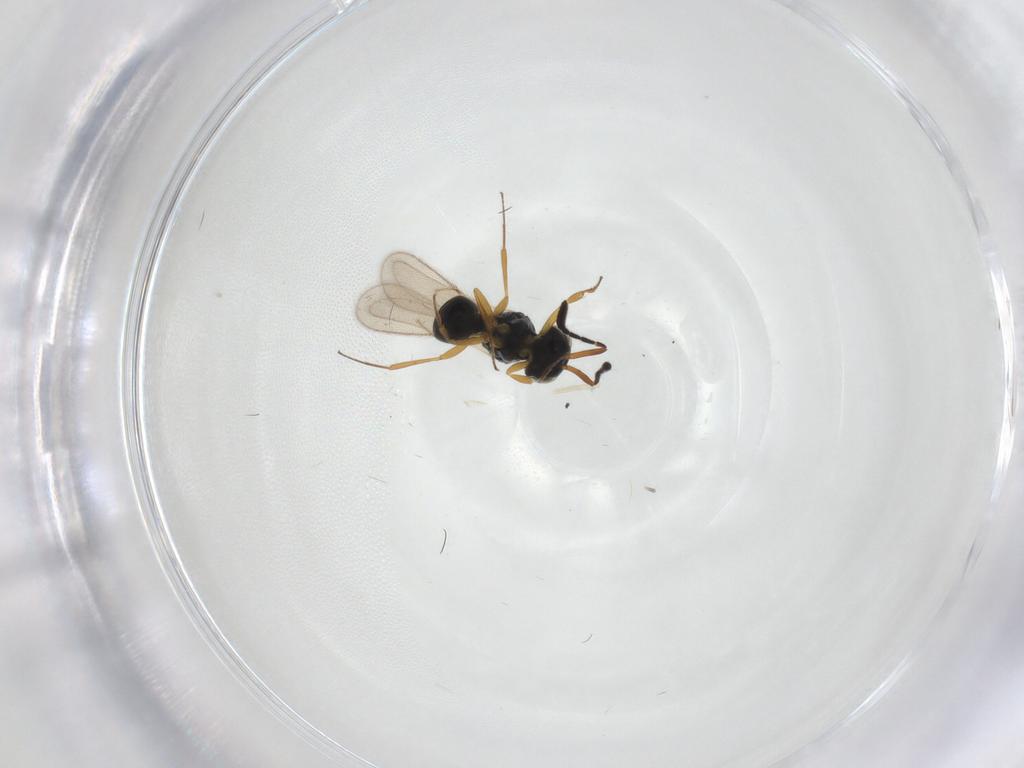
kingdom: Animalia
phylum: Arthropoda
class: Insecta
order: Hymenoptera
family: Scelionidae
